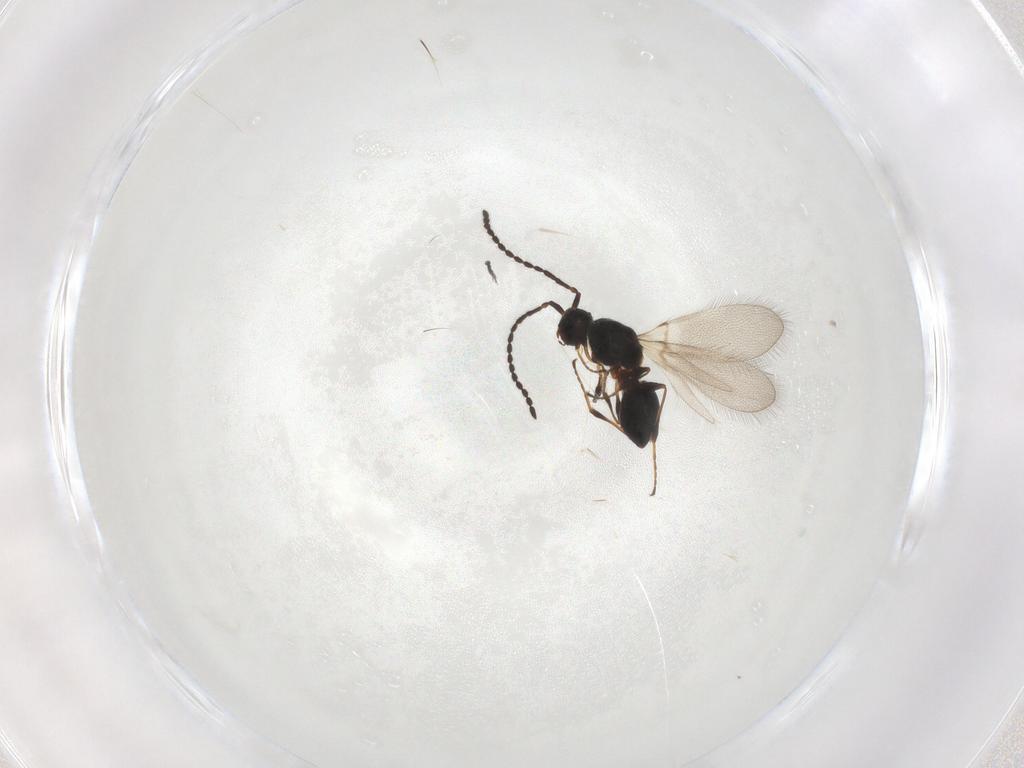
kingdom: Animalia
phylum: Arthropoda
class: Insecta
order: Hymenoptera
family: Diapriidae
